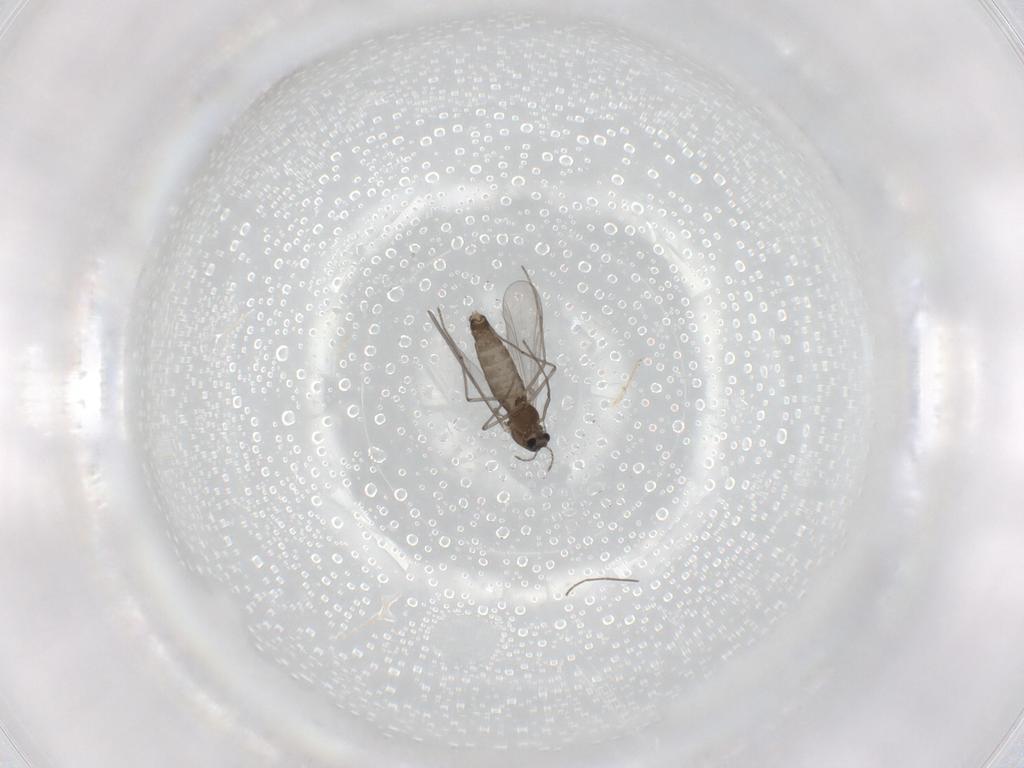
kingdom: Animalia
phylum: Arthropoda
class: Insecta
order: Diptera
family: Chironomidae
